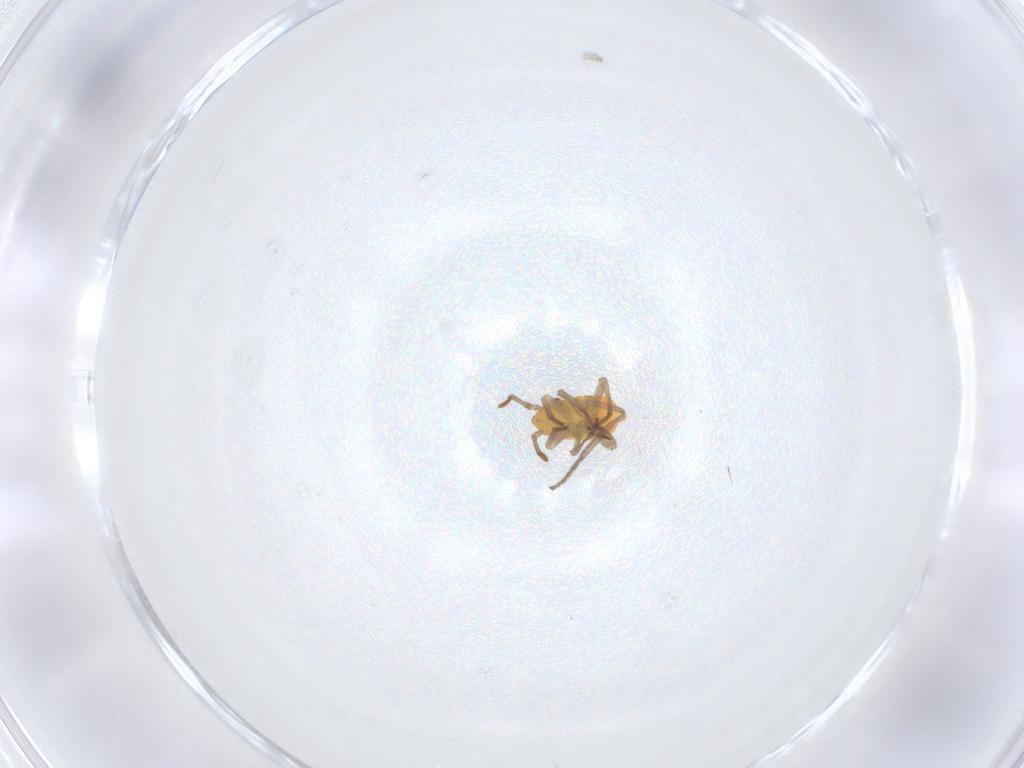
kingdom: Animalia
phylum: Arthropoda
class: Insecta
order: Hemiptera
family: Miridae
